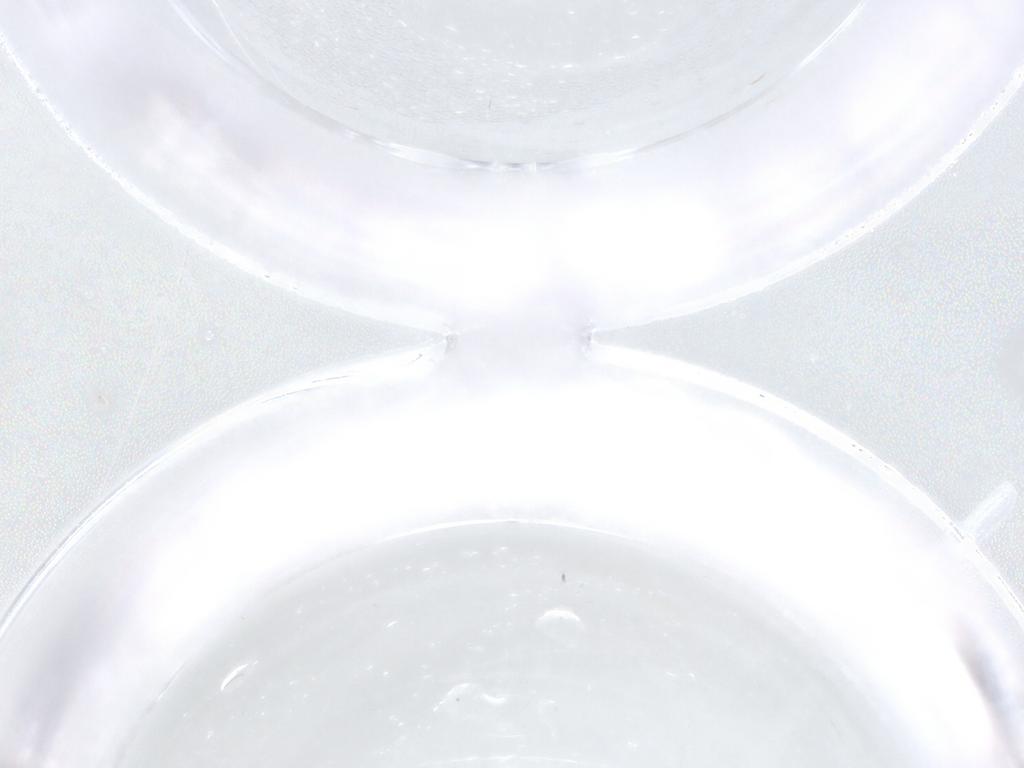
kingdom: Animalia
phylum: Arthropoda
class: Insecta
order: Diptera
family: Chironomidae
